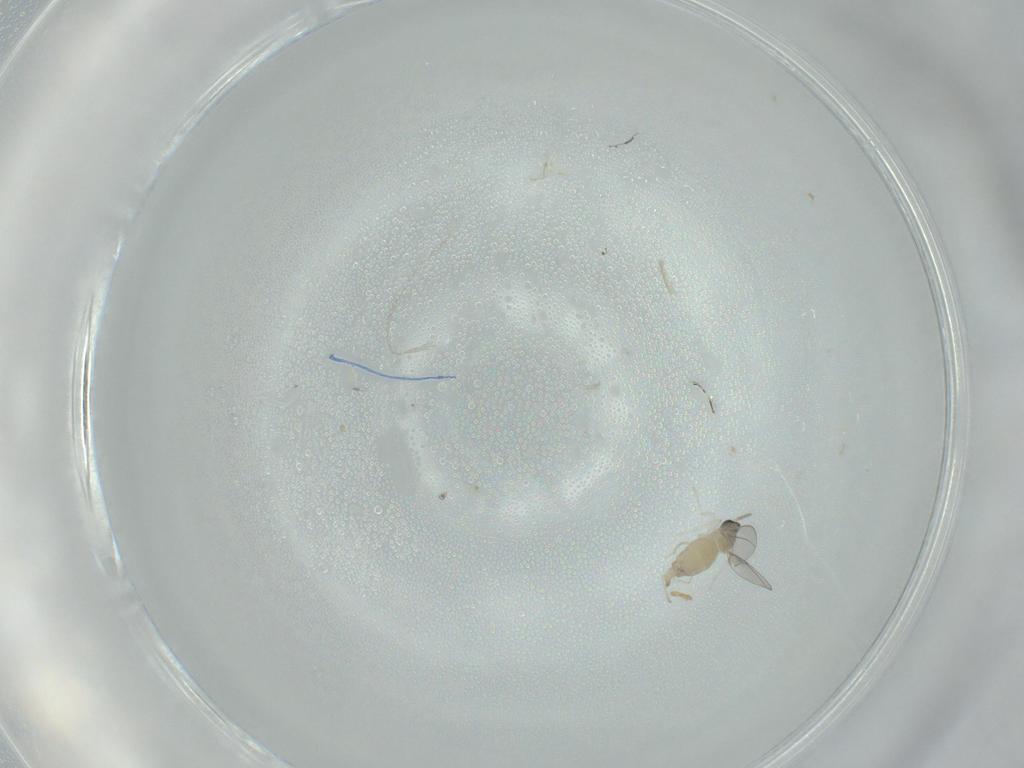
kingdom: Animalia
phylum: Arthropoda
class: Insecta
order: Diptera
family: Cecidomyiidae
